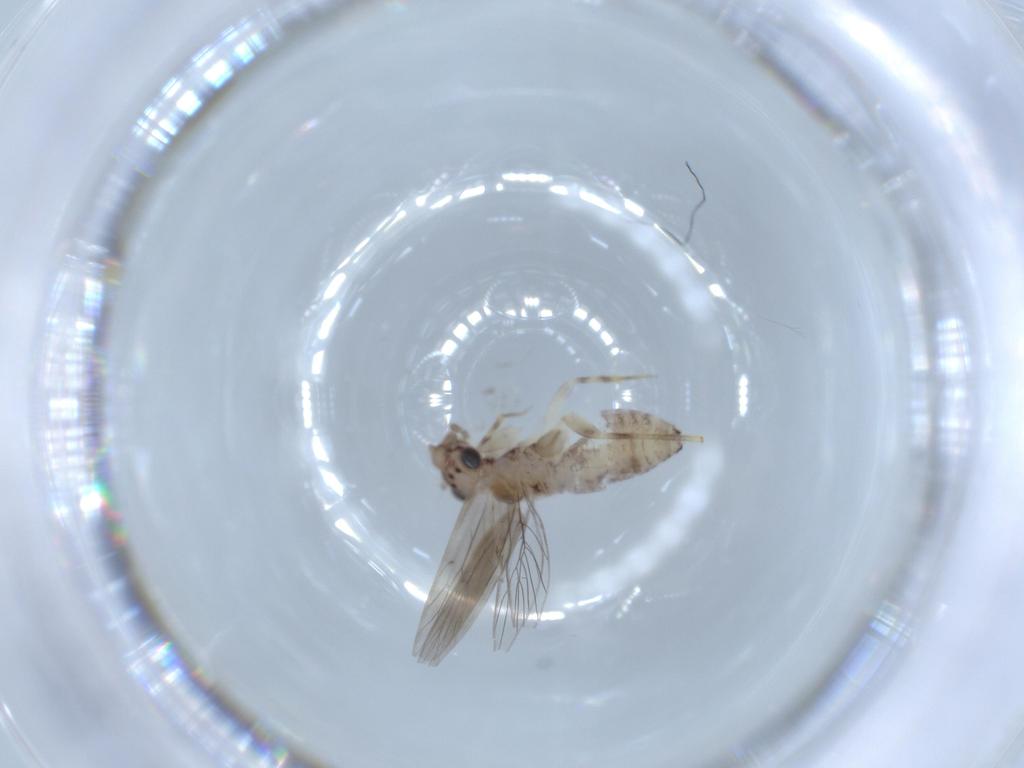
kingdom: Animalia
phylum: Arthropoda
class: Insecta
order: Psocodea
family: Lepidopsocidae
